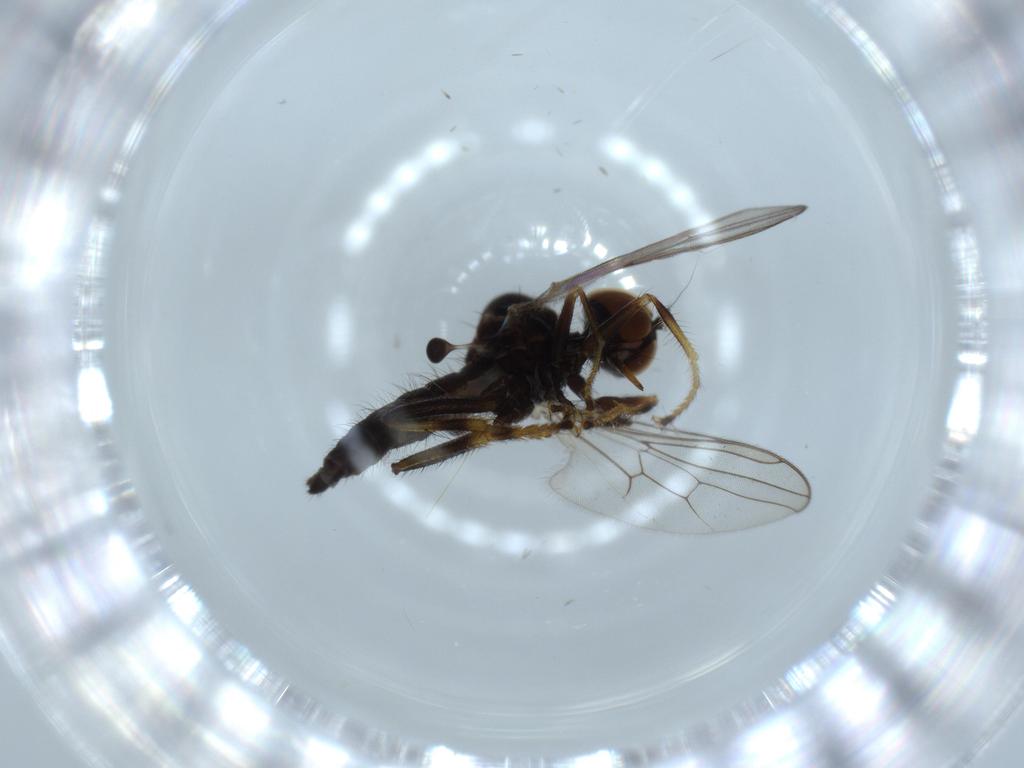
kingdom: Animalia
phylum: Arthropoda
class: Insecta
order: Diptera
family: Hybotidae
